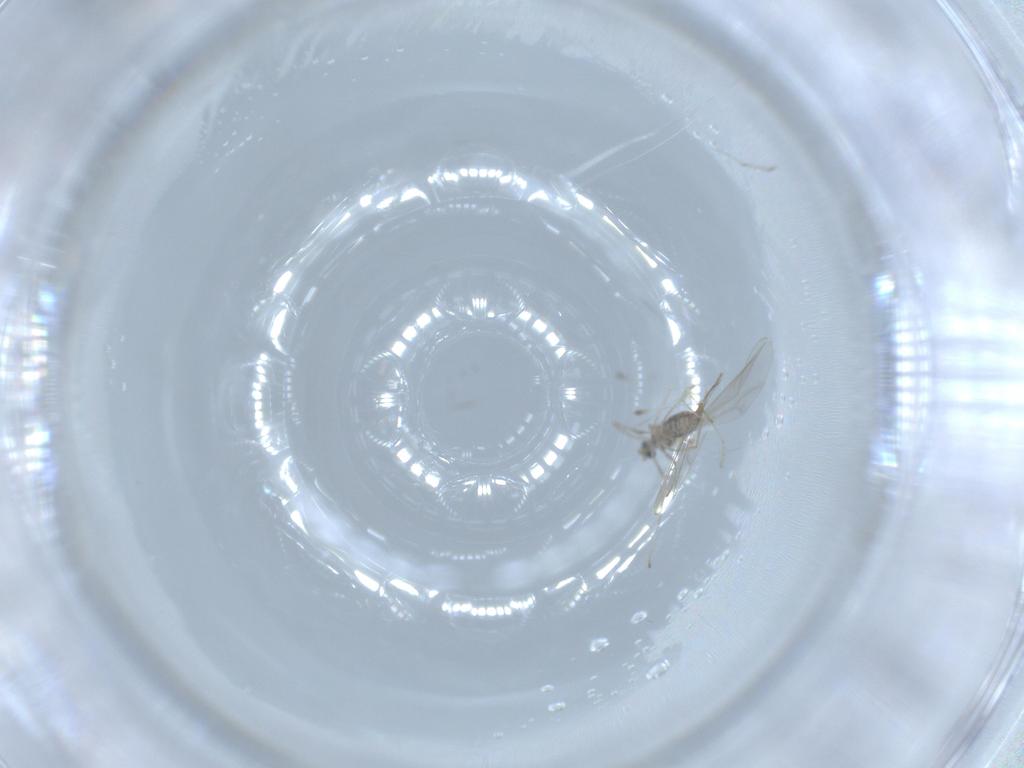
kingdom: Animalia
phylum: Arthropoda
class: Insecta
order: Diptera
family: Cecidomyiidae
